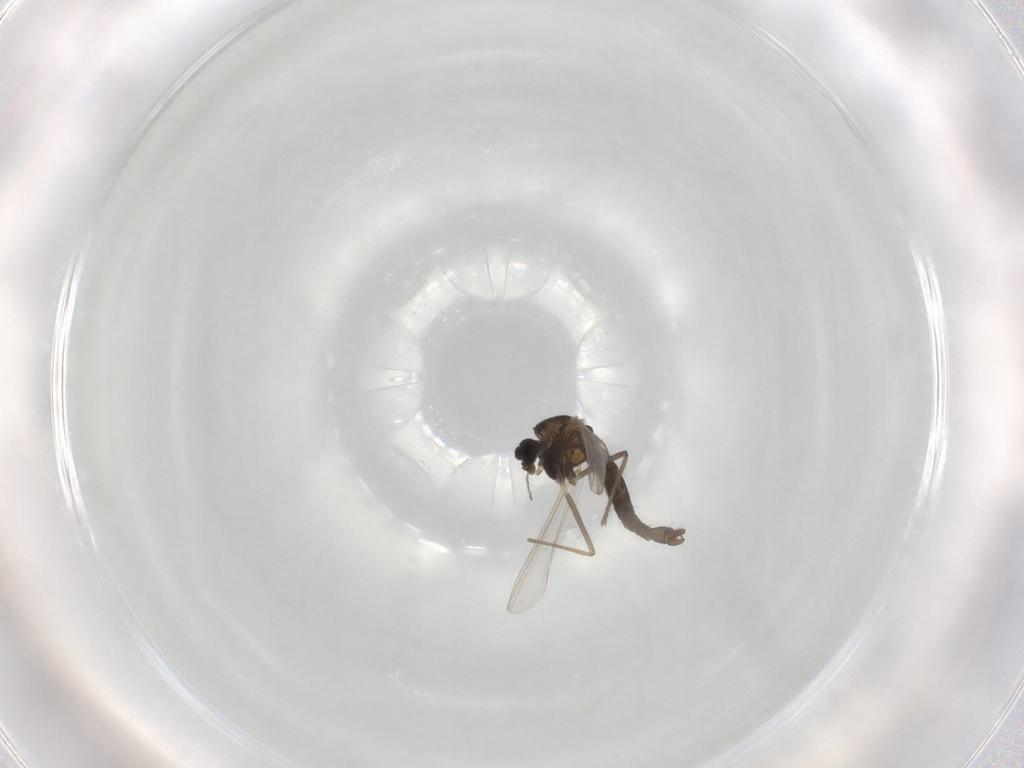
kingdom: Animalia
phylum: Arthropoda
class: Insecta
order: Diptera
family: Chironomidae
